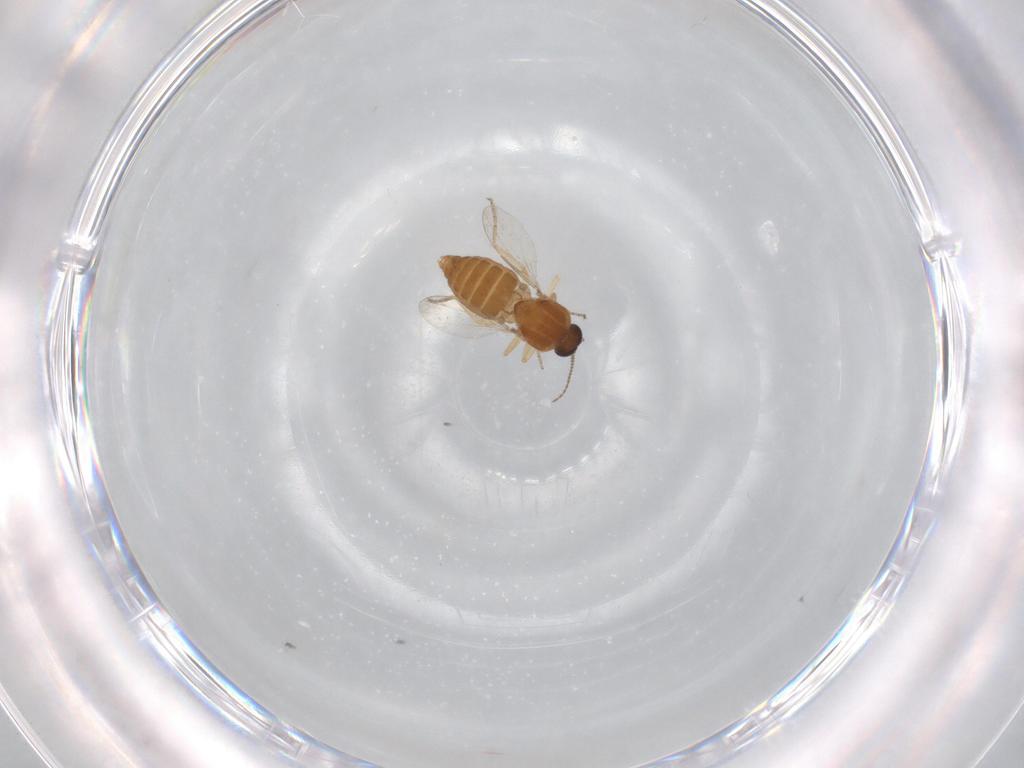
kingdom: Animalia
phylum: Arthropoda
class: Insecta
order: Diptera
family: Ceratopogonidae
